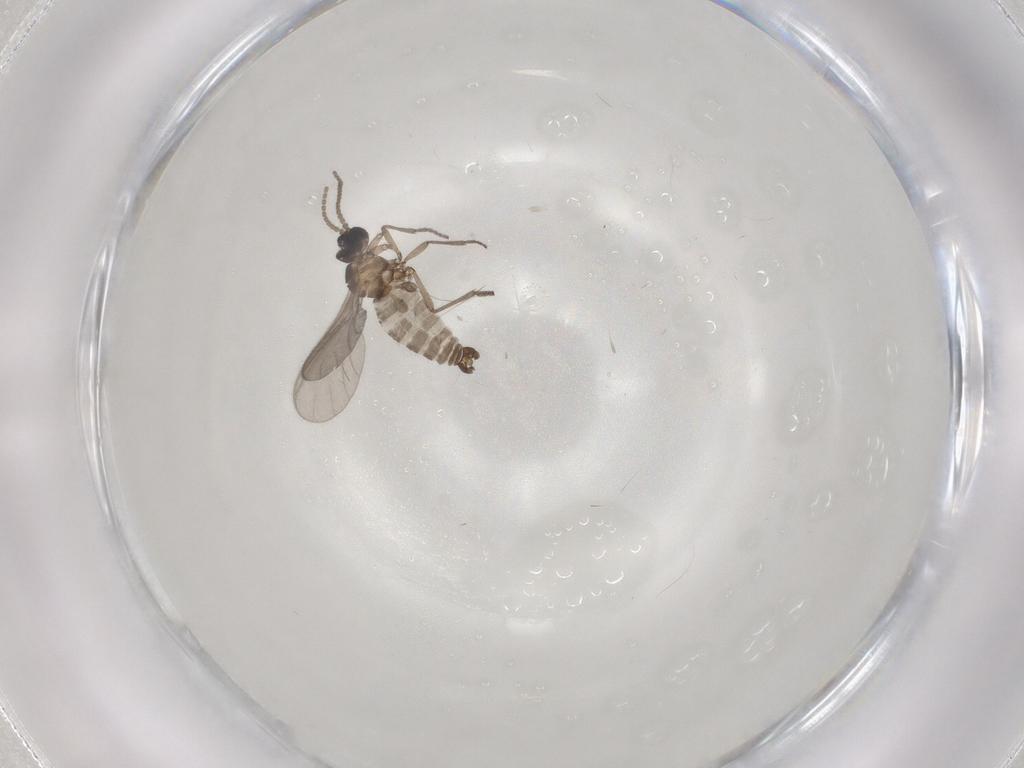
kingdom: Animalia
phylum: Arthropoda
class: Insecta
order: Diptera
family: Sciaridae
